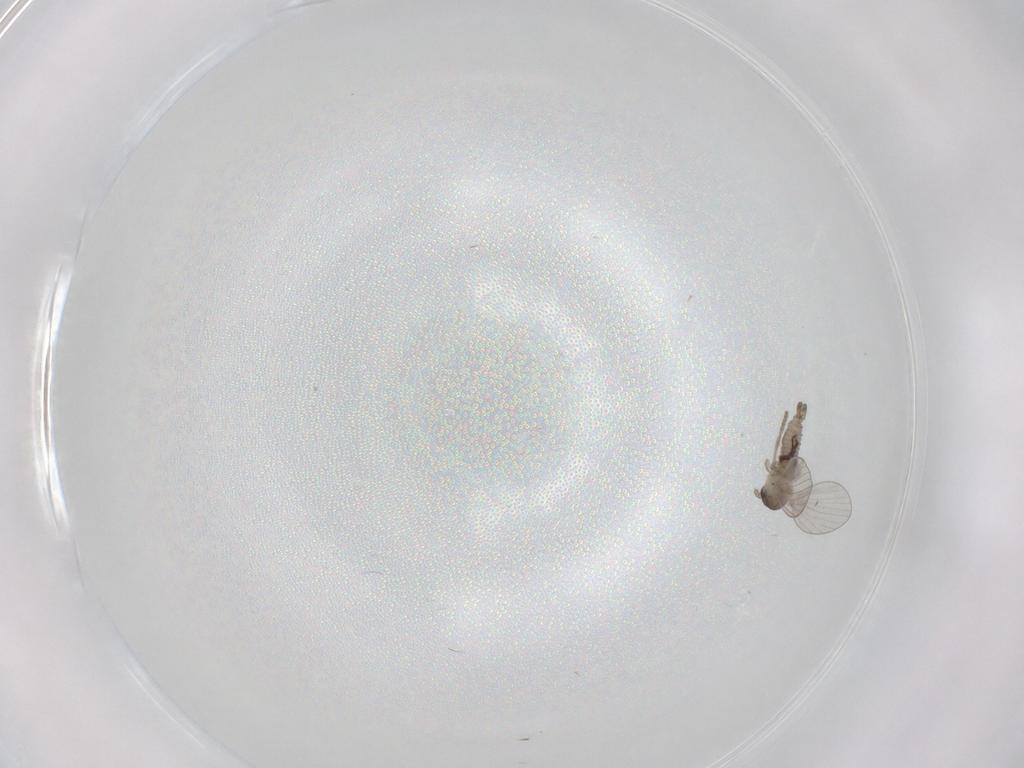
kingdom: Animalia
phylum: Arthropoda
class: Insecta
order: Diptera
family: Psychodidae
